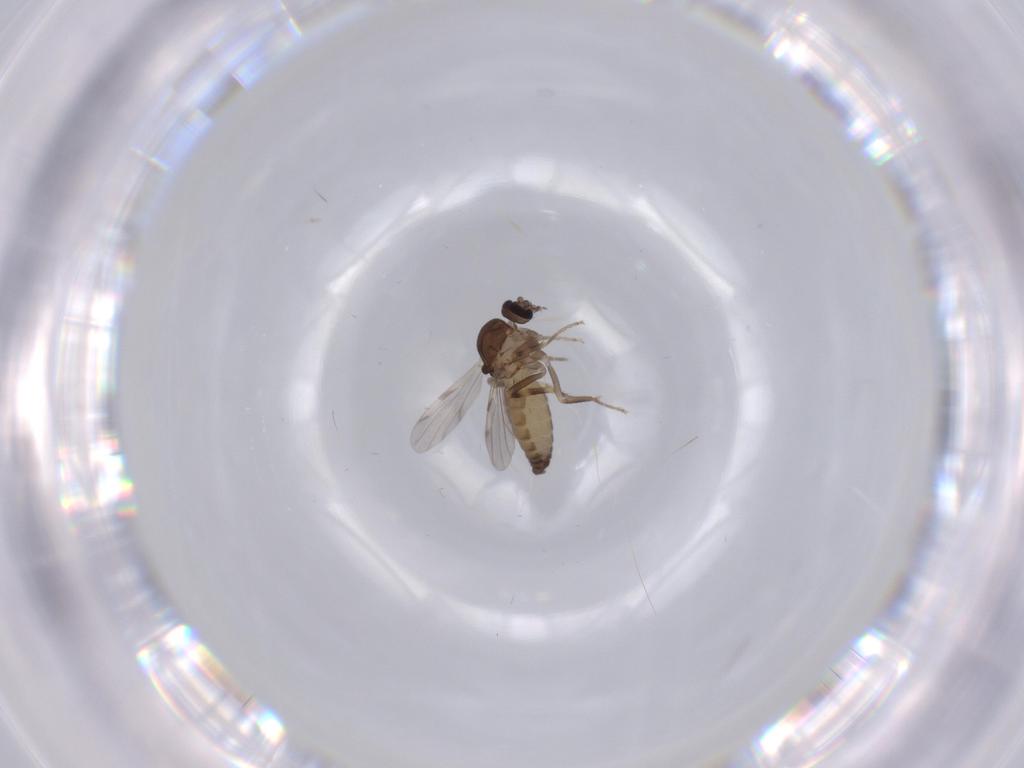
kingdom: Animalia
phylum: Arthropoda
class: Insecta
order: Diptera
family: Ceratopogonidae
